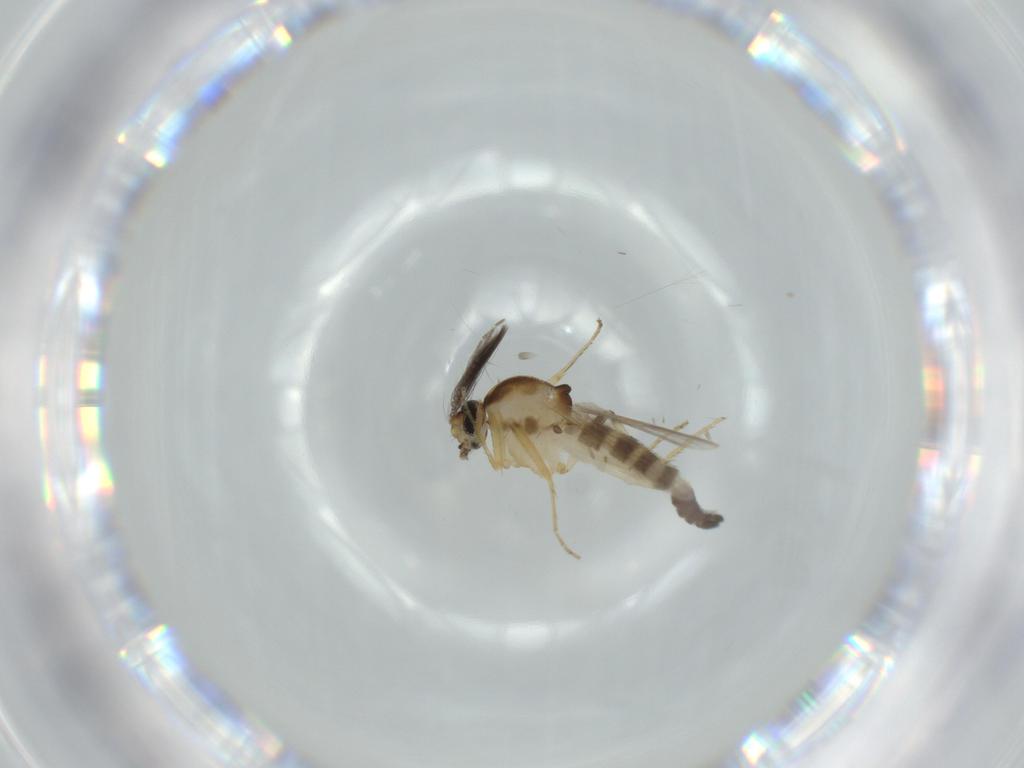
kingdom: Animalia
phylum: Arthropoda
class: Insecta
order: Diptera
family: Ceratopogonidae
